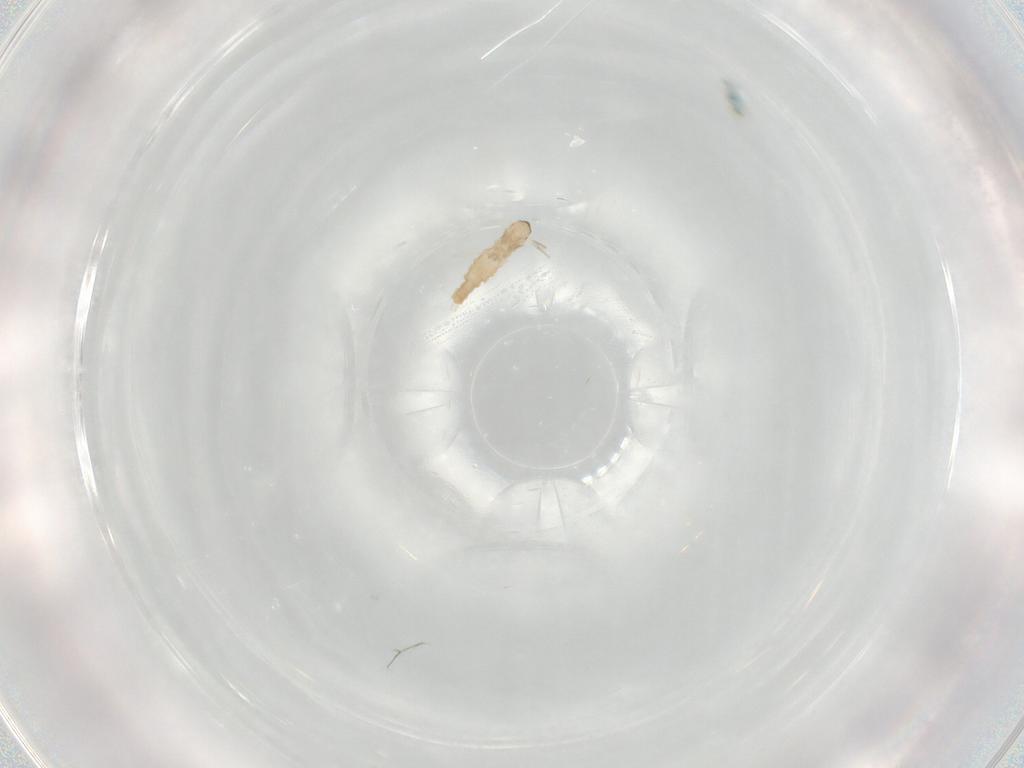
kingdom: Animalia
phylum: Arthropoda
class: Insecta
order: Diptera
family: Cecidomyiidae
